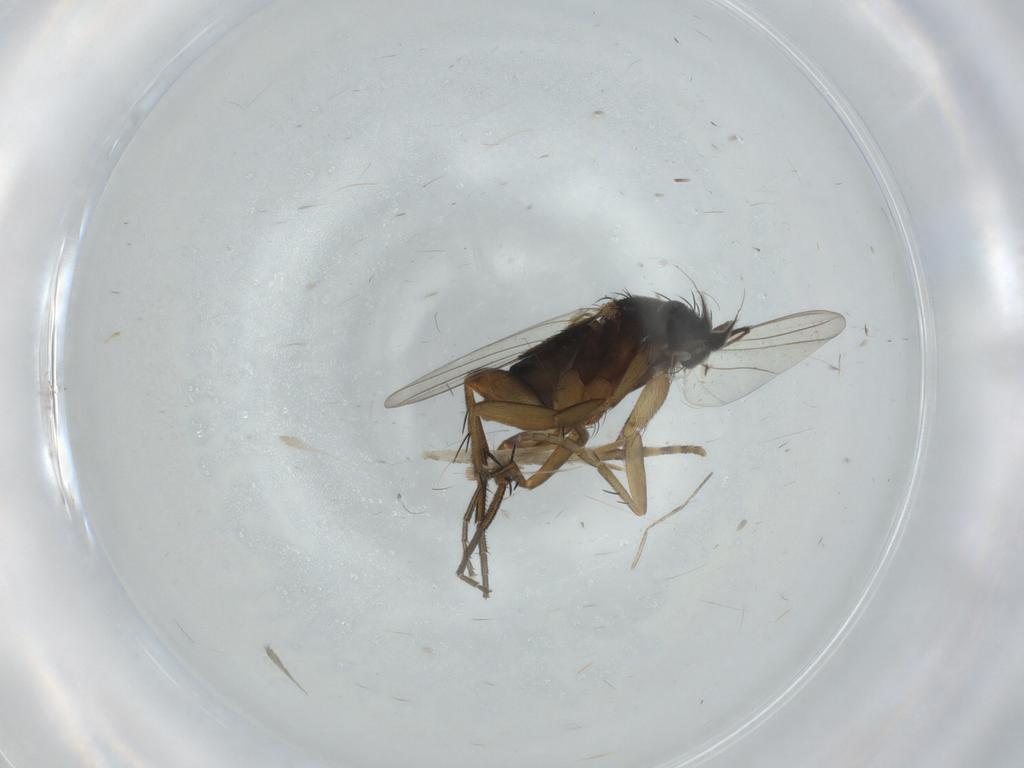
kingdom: Animalia
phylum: Arthropoda
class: Insecta
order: Diptera
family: Phoridae
